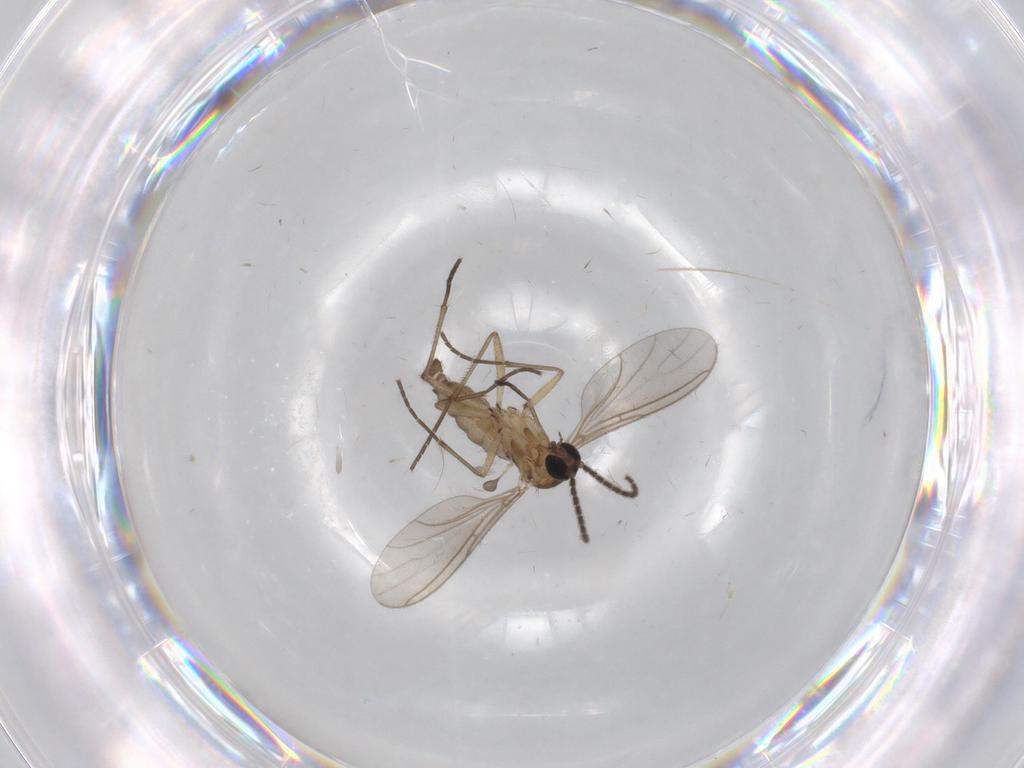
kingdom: Animalia
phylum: Arthropoda
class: Insecta
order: Diptera
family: Sciaridae
